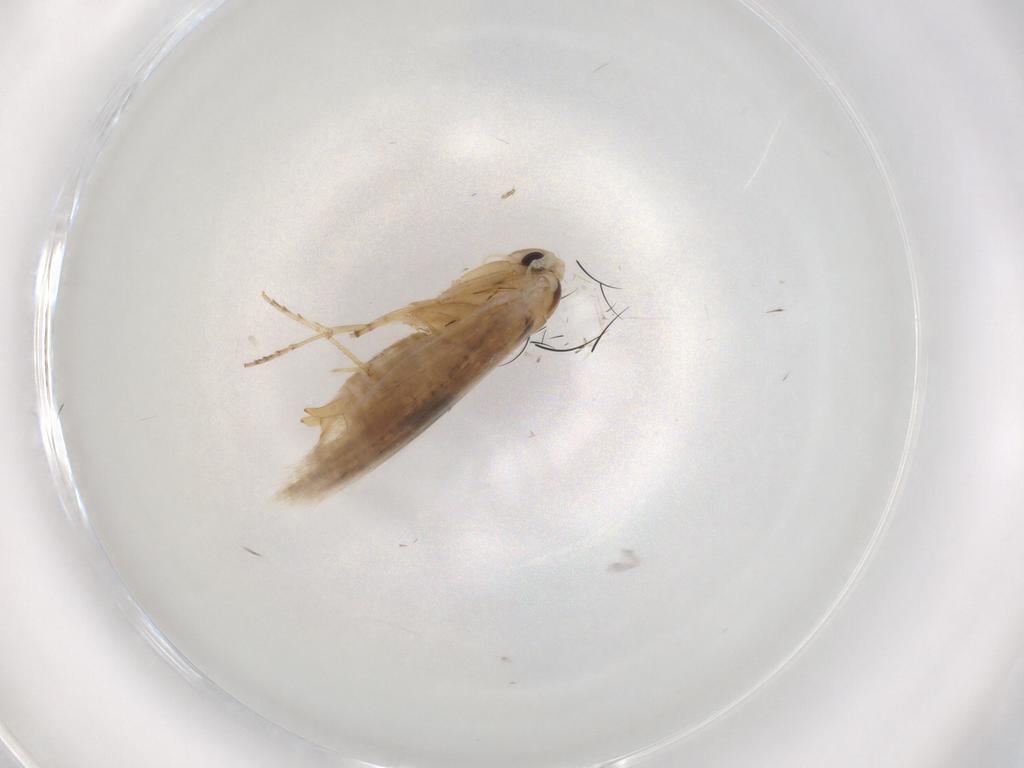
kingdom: Animalia
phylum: Arthropoda
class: Insecta
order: Lepidoptera
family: Bucculatricidae
